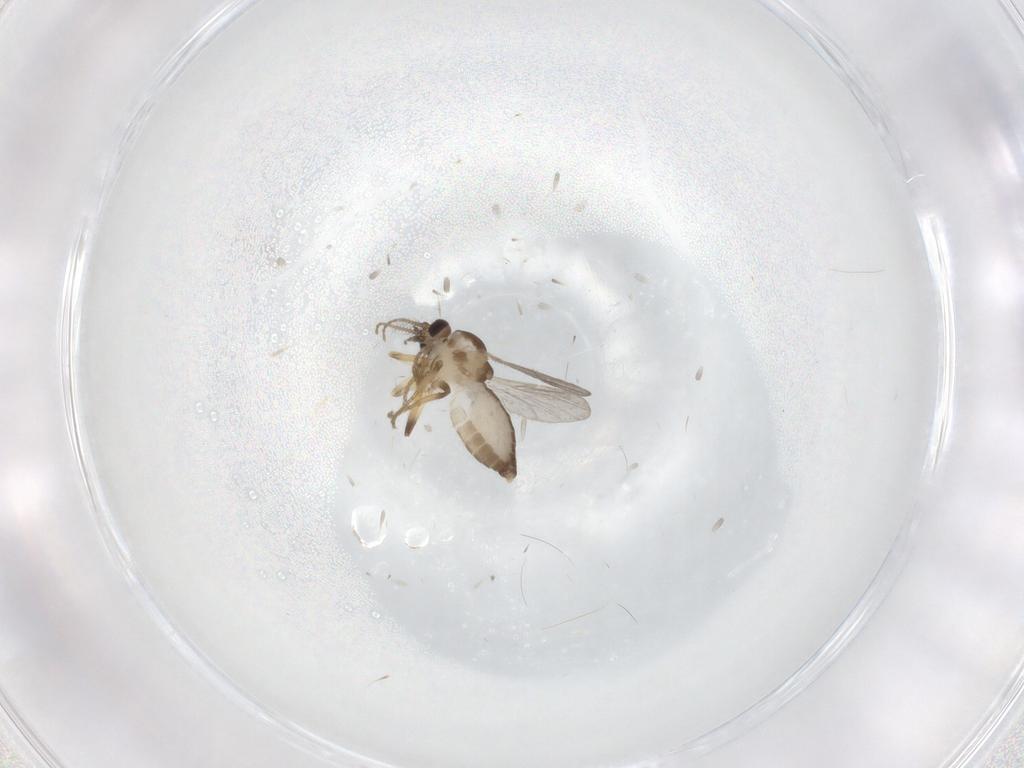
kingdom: Animalia
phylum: Arthropoda
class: Insecta
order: Diptera
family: Ceratopogonidae
